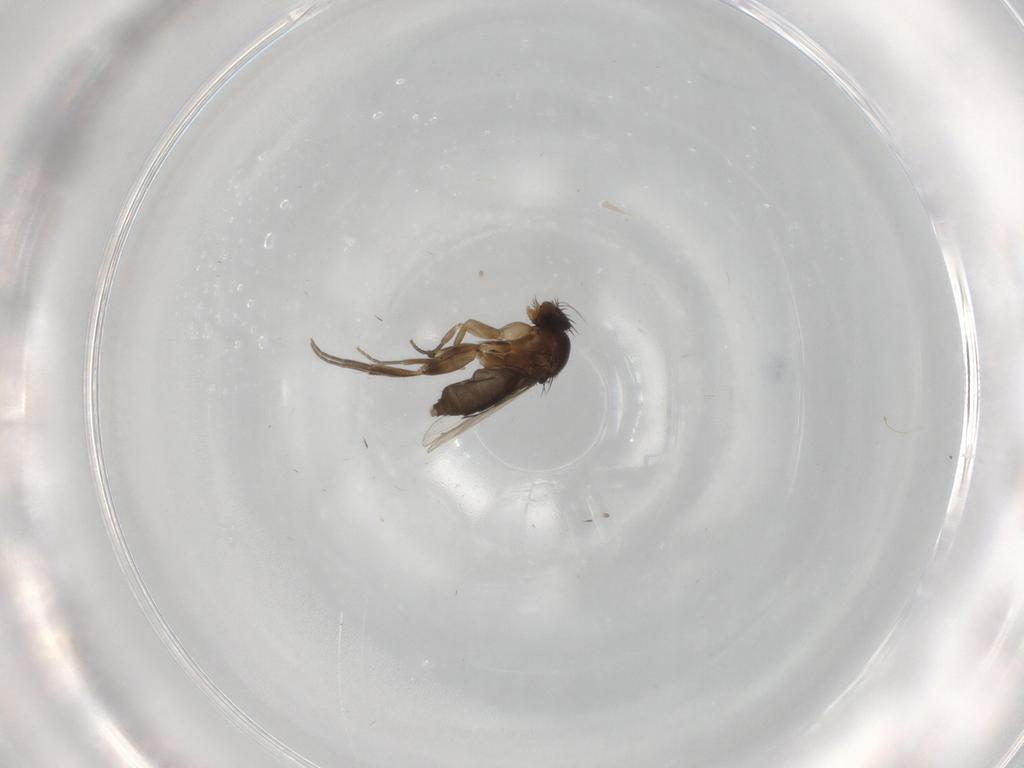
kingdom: Animalia
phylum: Arthropoda
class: Insecta
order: Diptera
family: Phoridae
